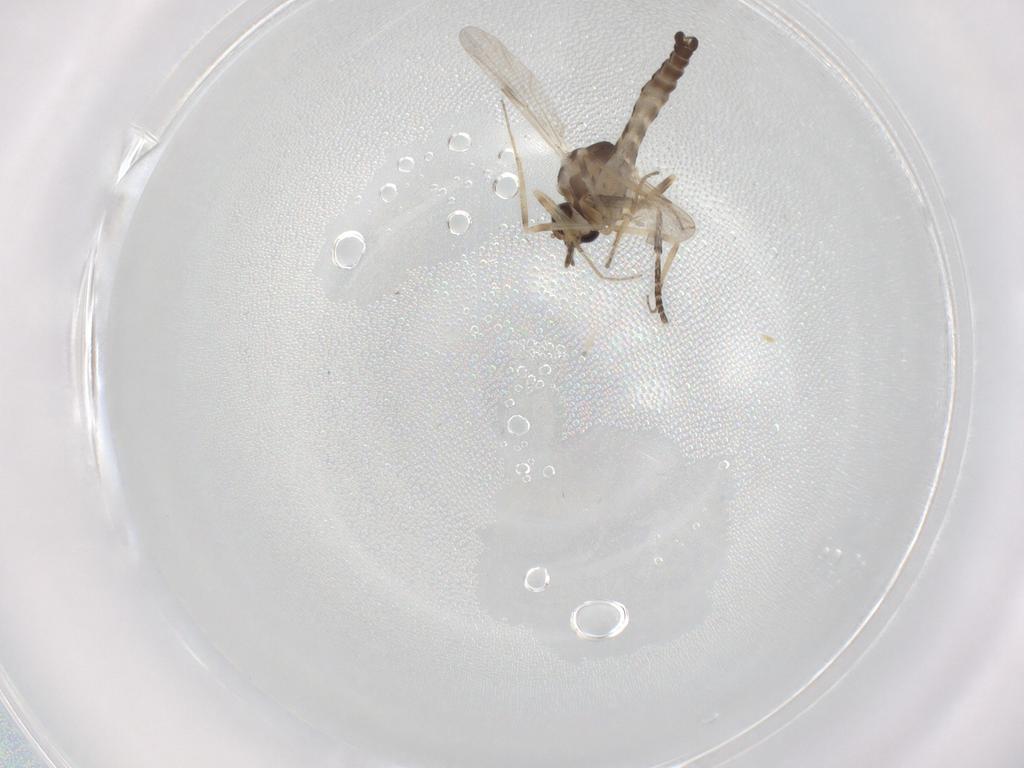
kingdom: Animalia
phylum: Arthropoda
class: Insecta
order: Diptera
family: Ceratopogonidae
